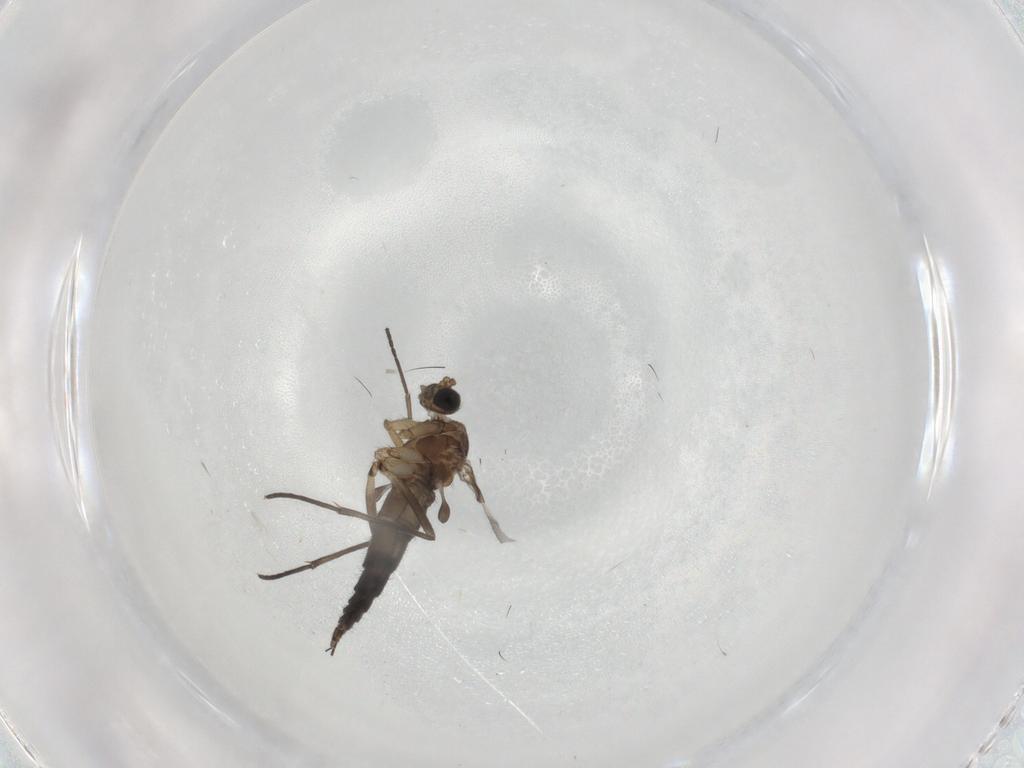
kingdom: Animalia
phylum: Arthropoda
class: Insecta
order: Diptera
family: Sciaridae
